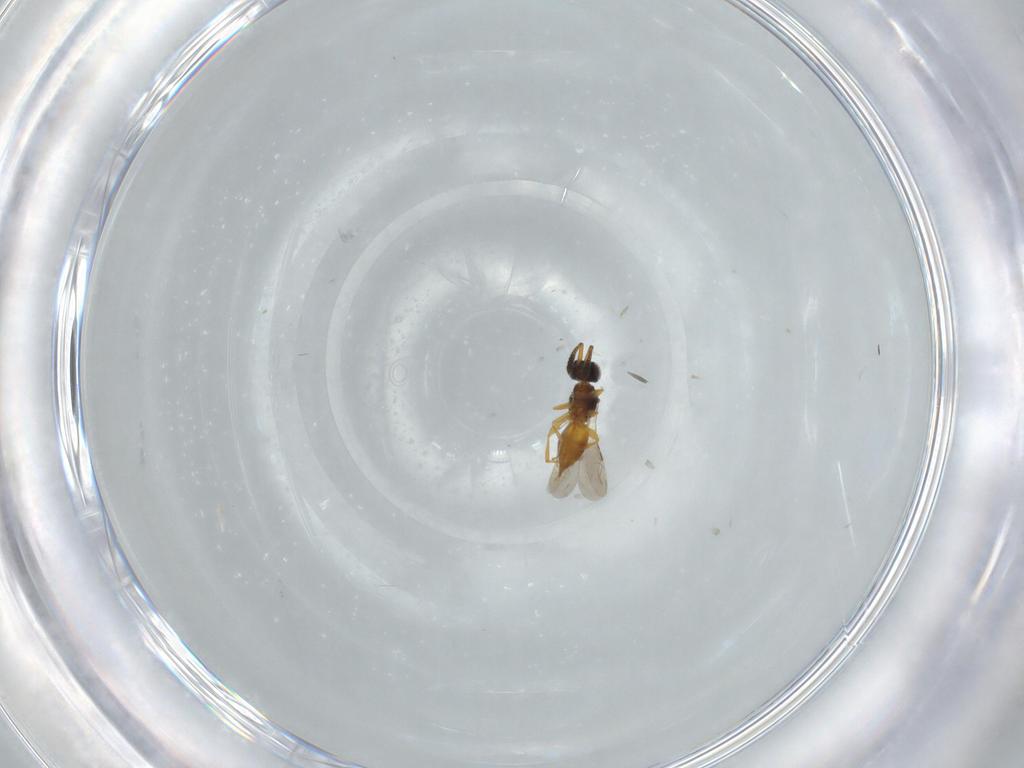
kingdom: Animalia
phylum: Arthropoda
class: Insecta
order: Hymenoptera
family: Ceraphronidae
